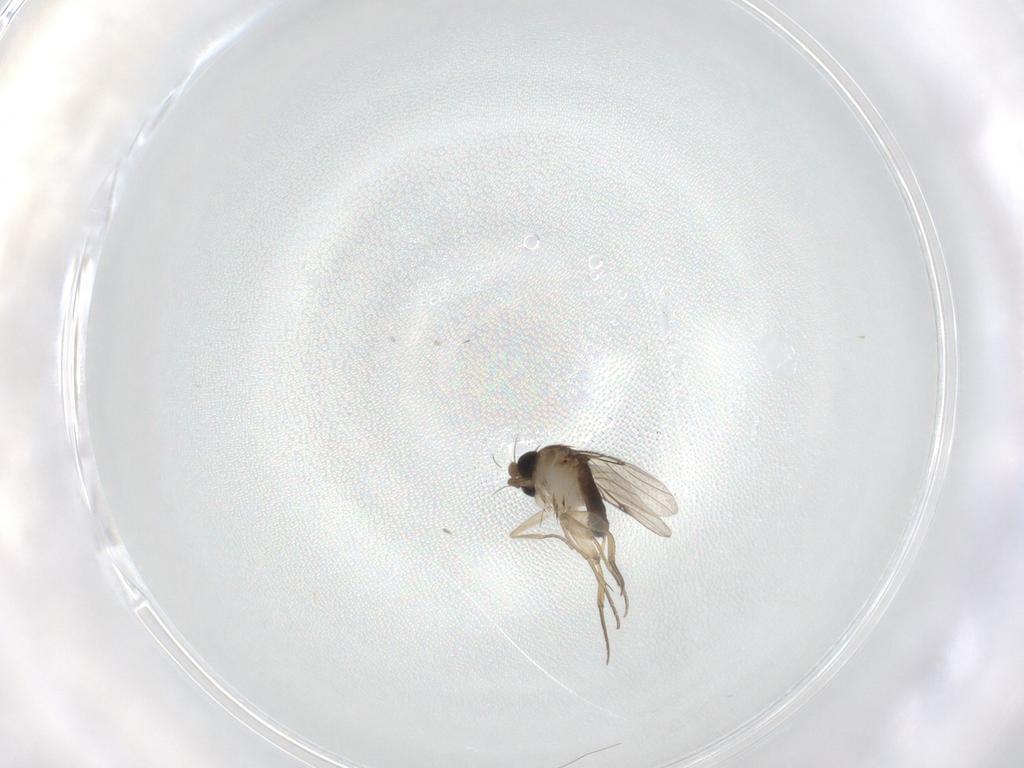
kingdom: Animalia
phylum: Arthropoda
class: Insecta
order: Diptera
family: Phoridae
